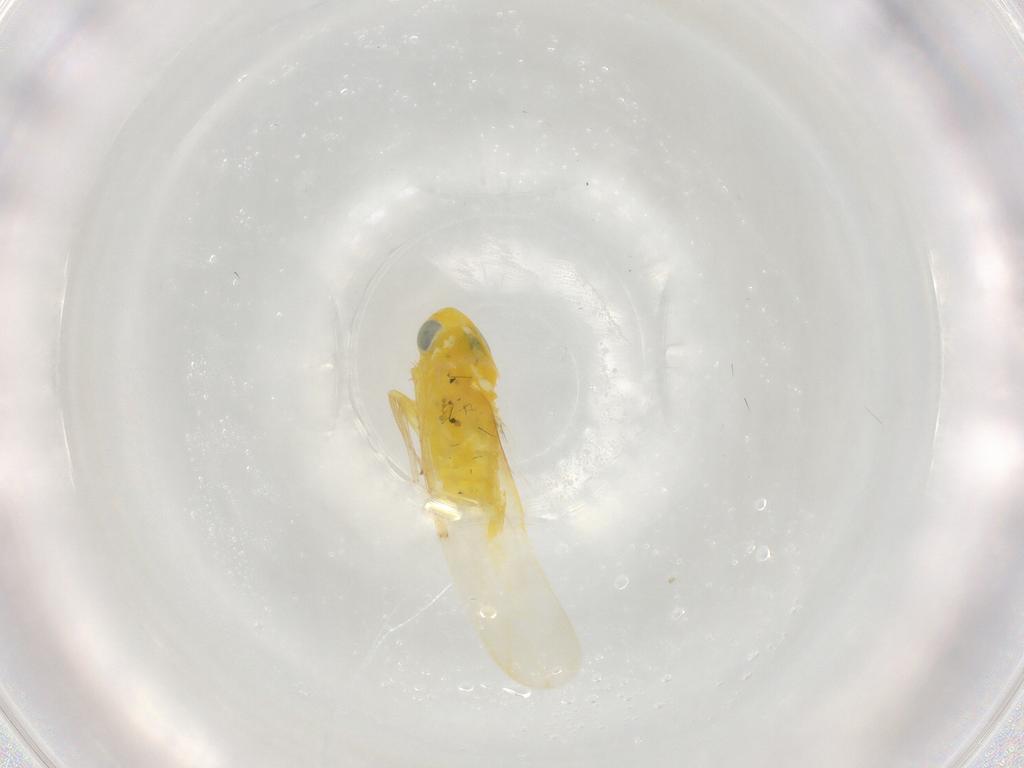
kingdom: Animalia
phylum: Arthropoda
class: Insecta
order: Hemiptera
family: Cicadellidae
